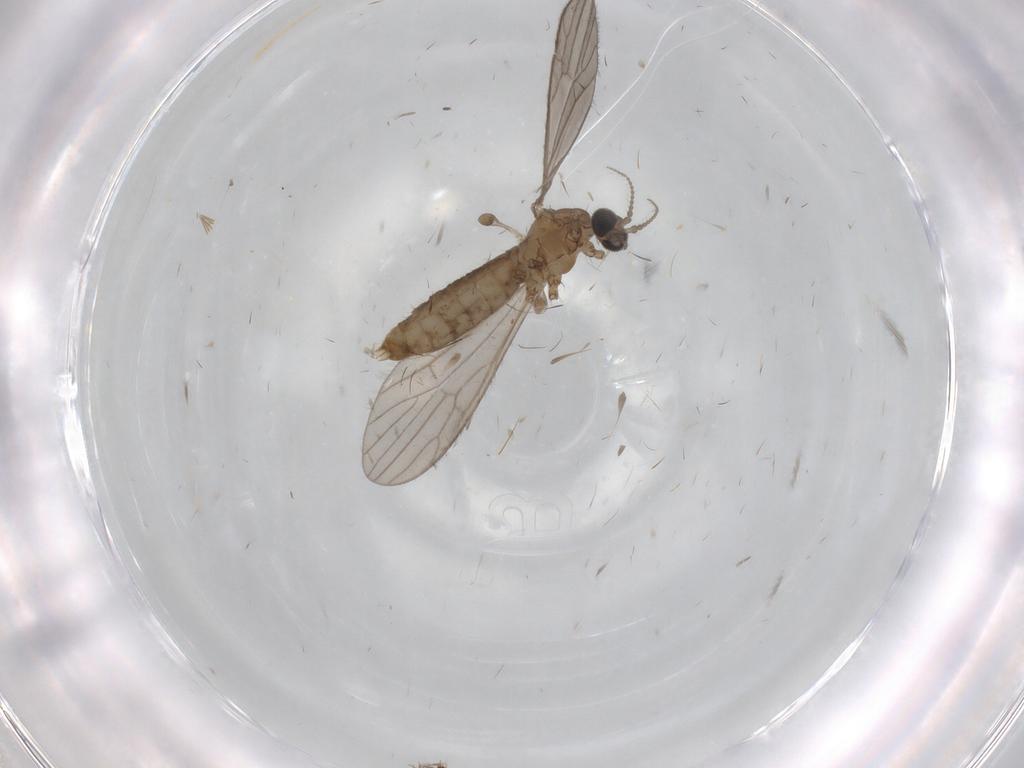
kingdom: Animalia
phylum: Arthropoda
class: Insecta
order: Diptera
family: Limoniidae
